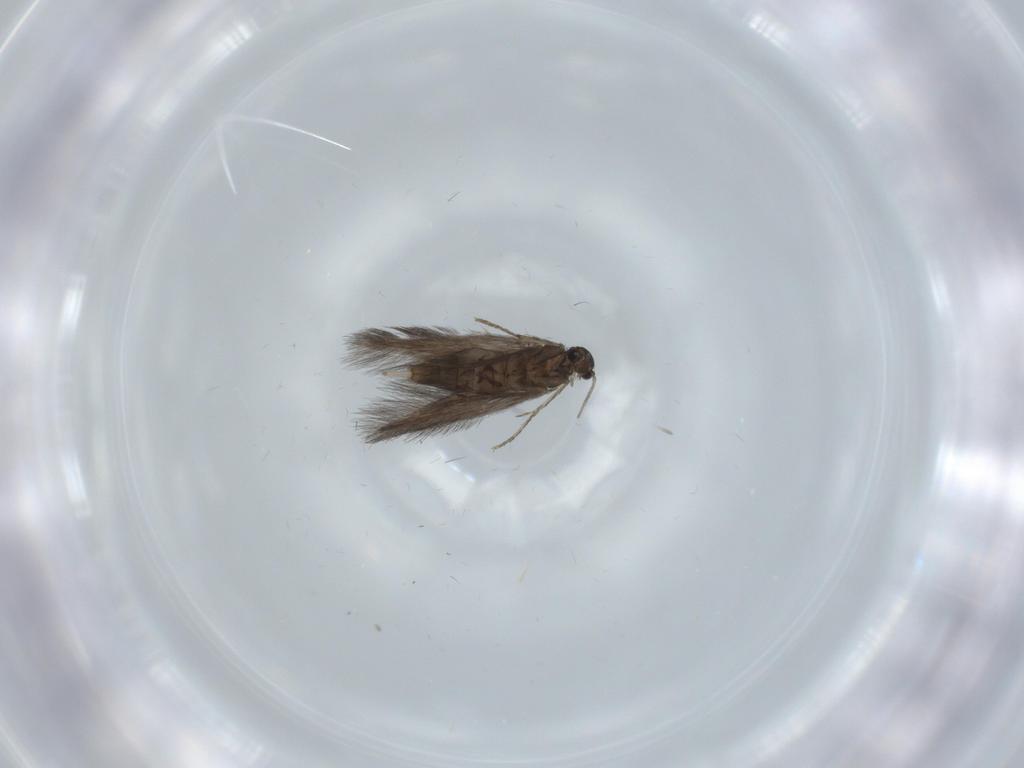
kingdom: Animalia
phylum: Arthropoda
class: Insecta
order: Trichoptera
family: Hydroptilidae
